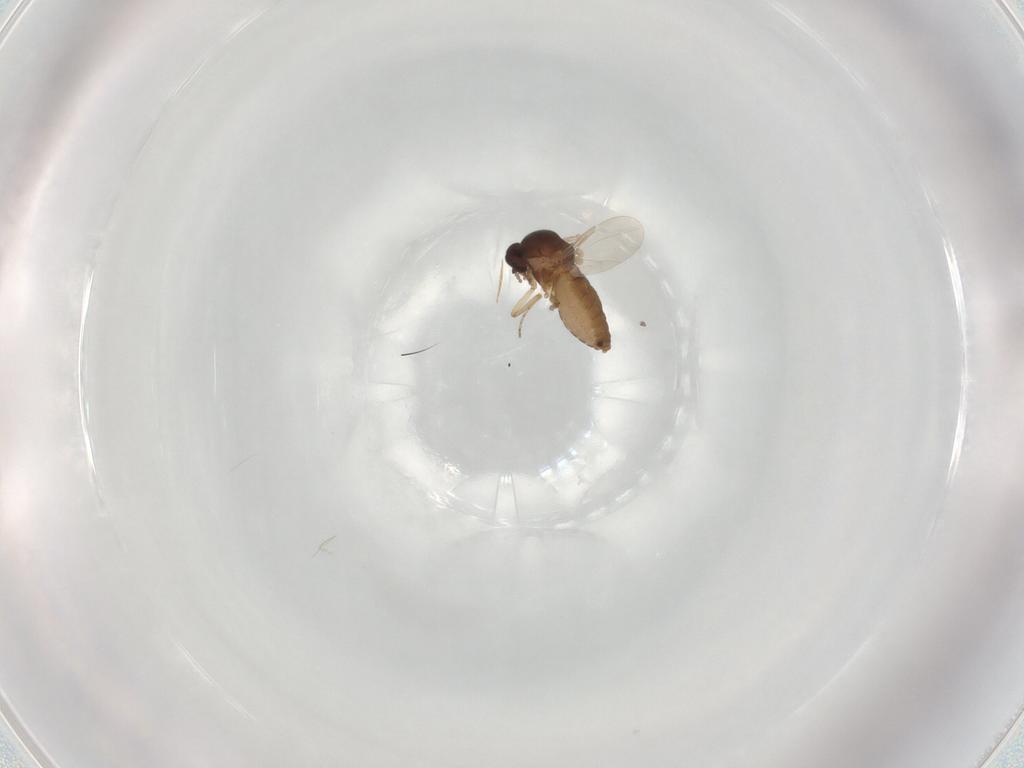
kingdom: Animalia
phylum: Arthropoda
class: Insecta
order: Diptera
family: Ceratopogonidae
